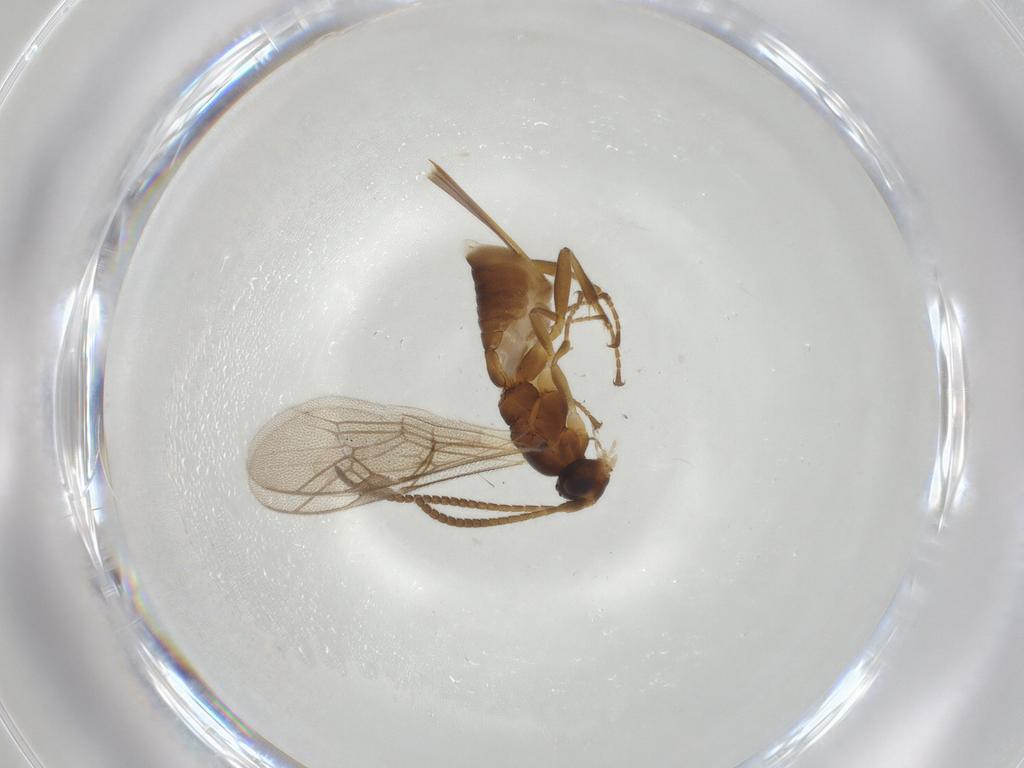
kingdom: Animalia
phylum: Arthropoda
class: Insecta
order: Hymenoptera
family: Ichneumonidae
